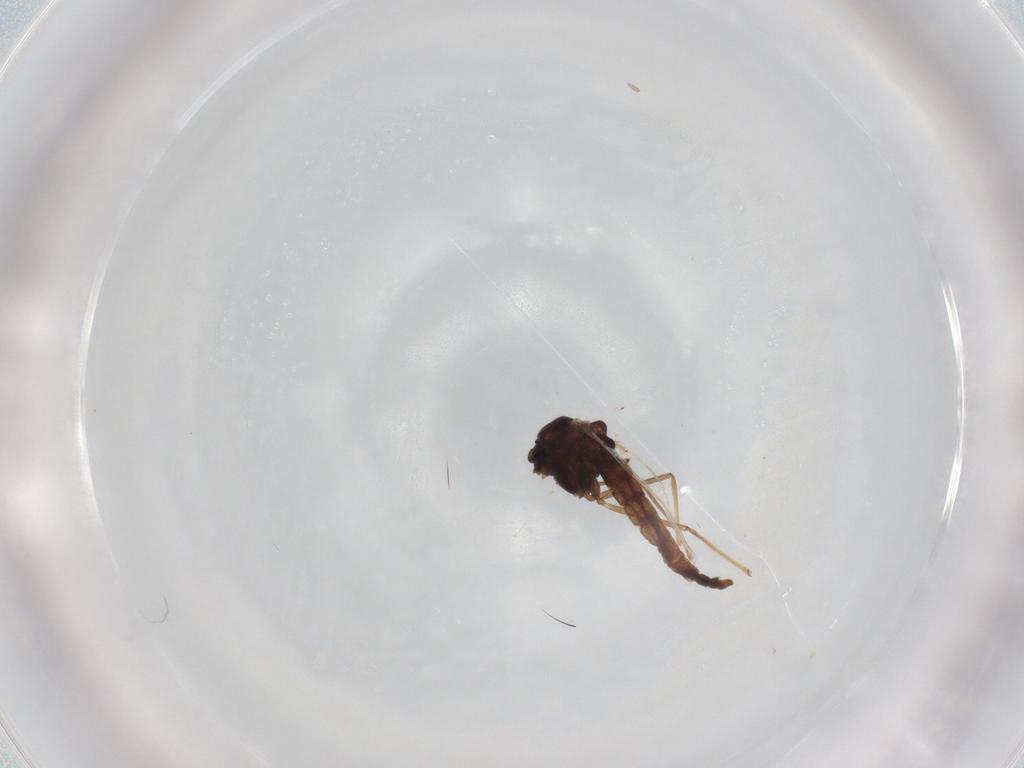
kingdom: Animalia
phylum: Arthropoda
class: Insecta
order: Diptera
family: Chironomidae
